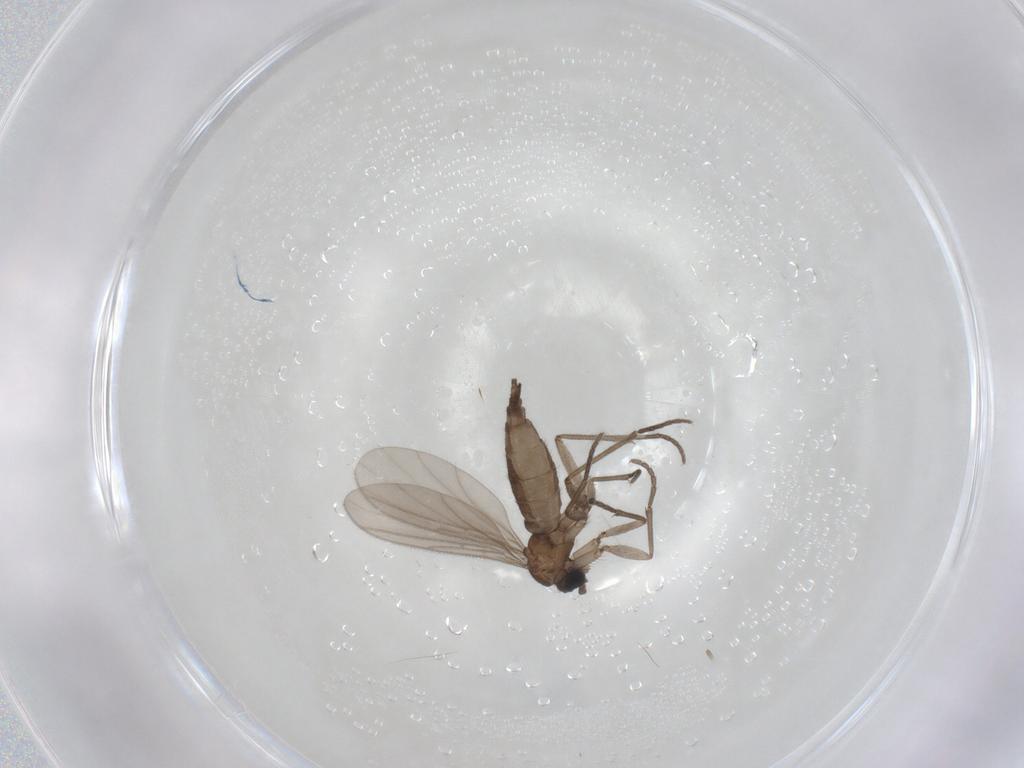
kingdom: Animalia
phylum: Arthropoda
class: Insecta
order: Diptera
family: Sciaridae
